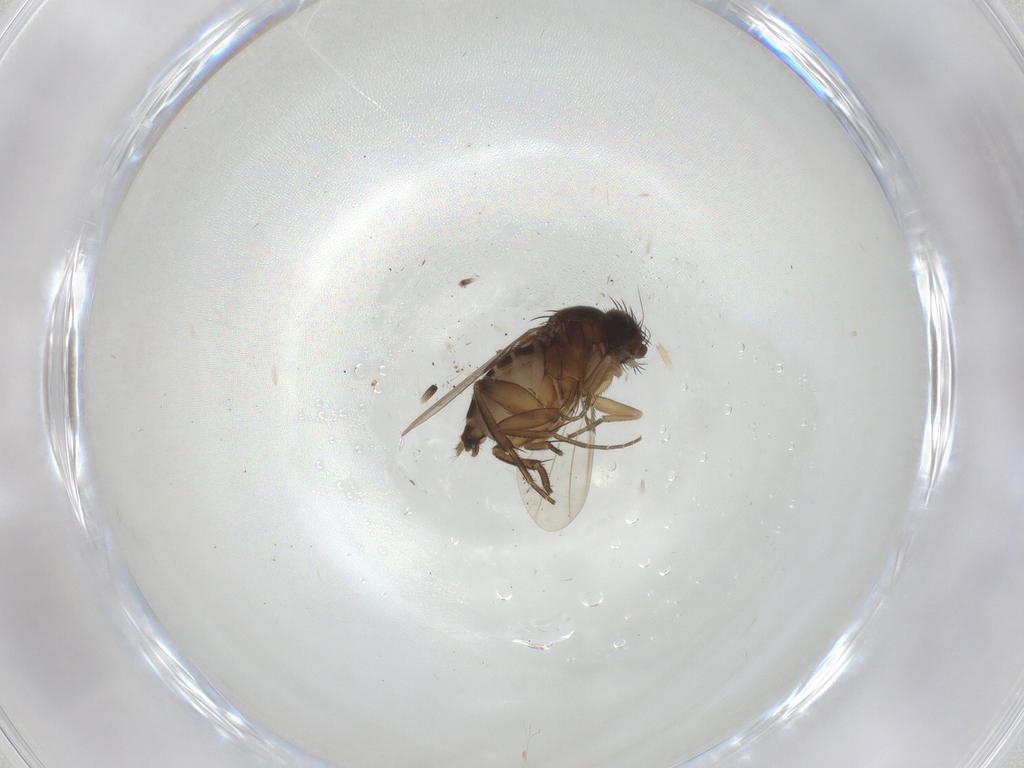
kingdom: Animalia
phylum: Arthropoda
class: Insecta
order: Diptera
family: Phoridae
